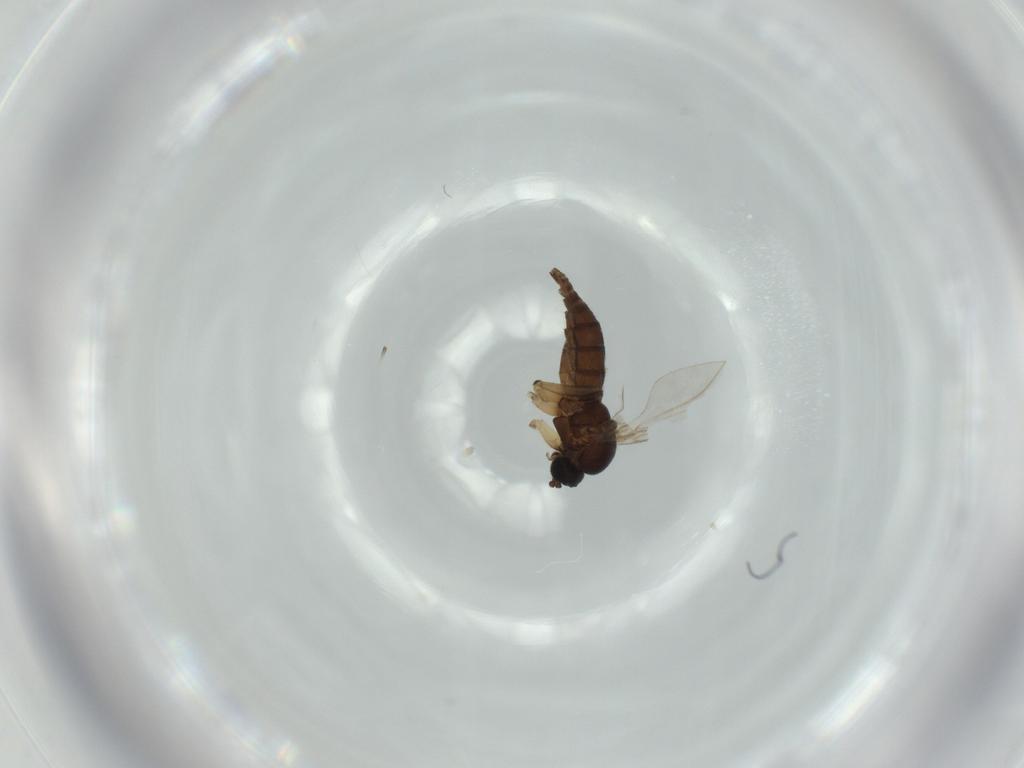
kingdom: Animalia
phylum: Arthropoda
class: Insecta
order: Diptera
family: Sciaridae
